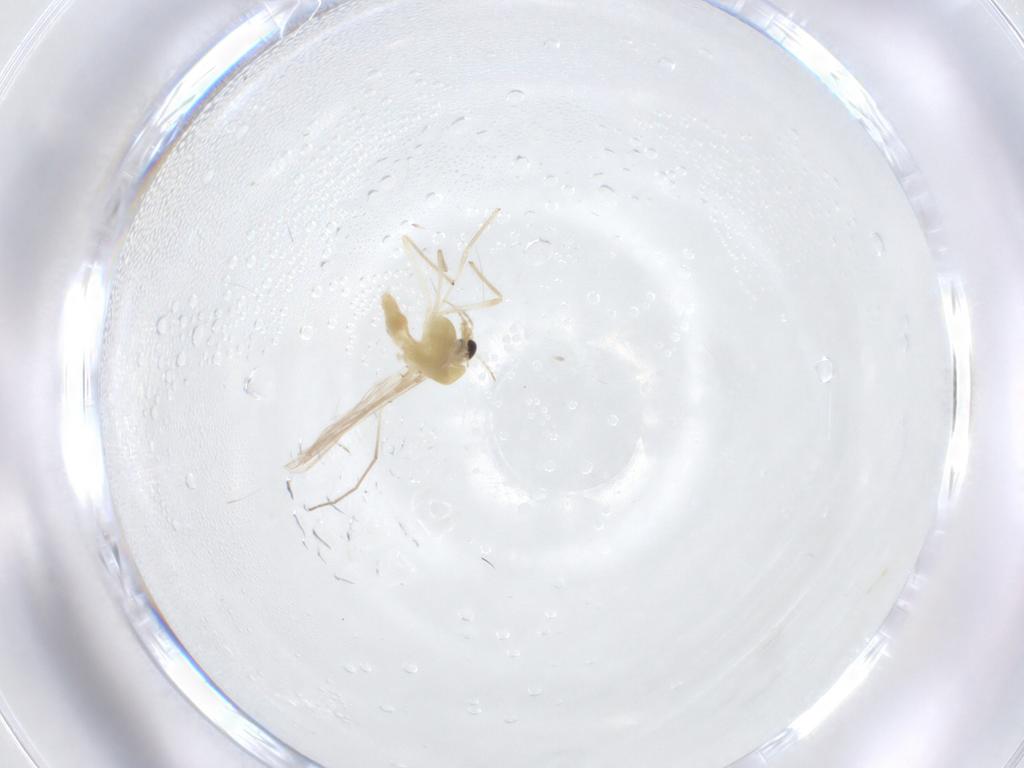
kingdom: Animalia
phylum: Arthropoda
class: Insecta
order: Diptera
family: Chironomidae
